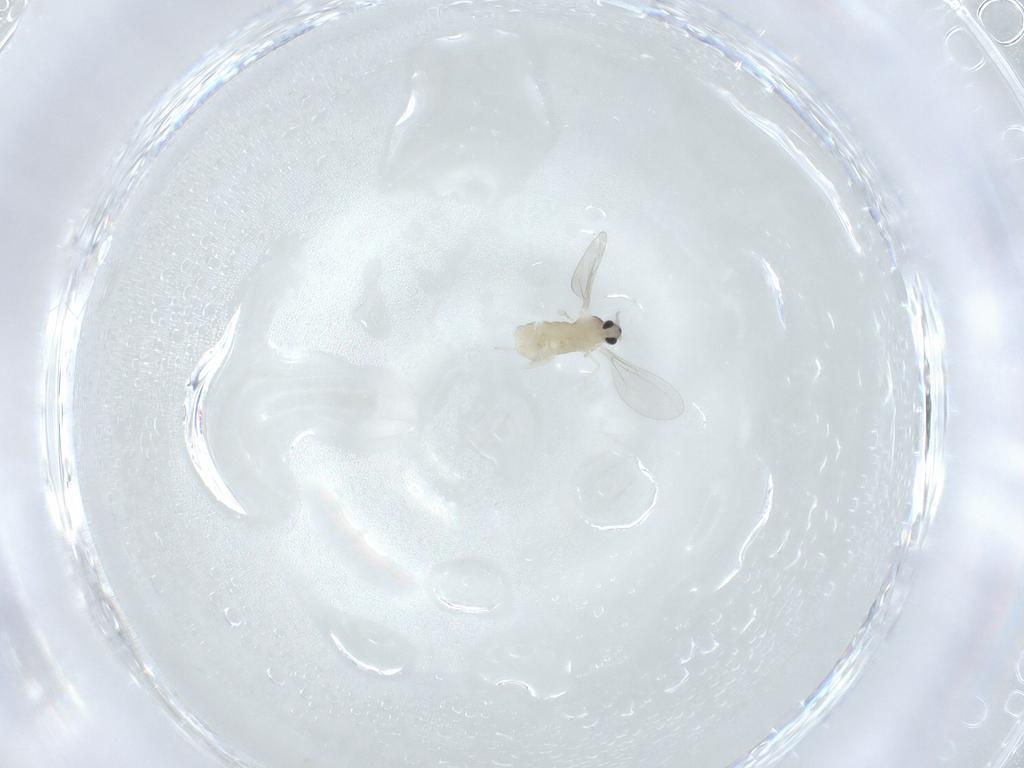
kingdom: Animalia
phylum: Arthropoda
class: Insecta
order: Diptera
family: Cecidomyiidae
